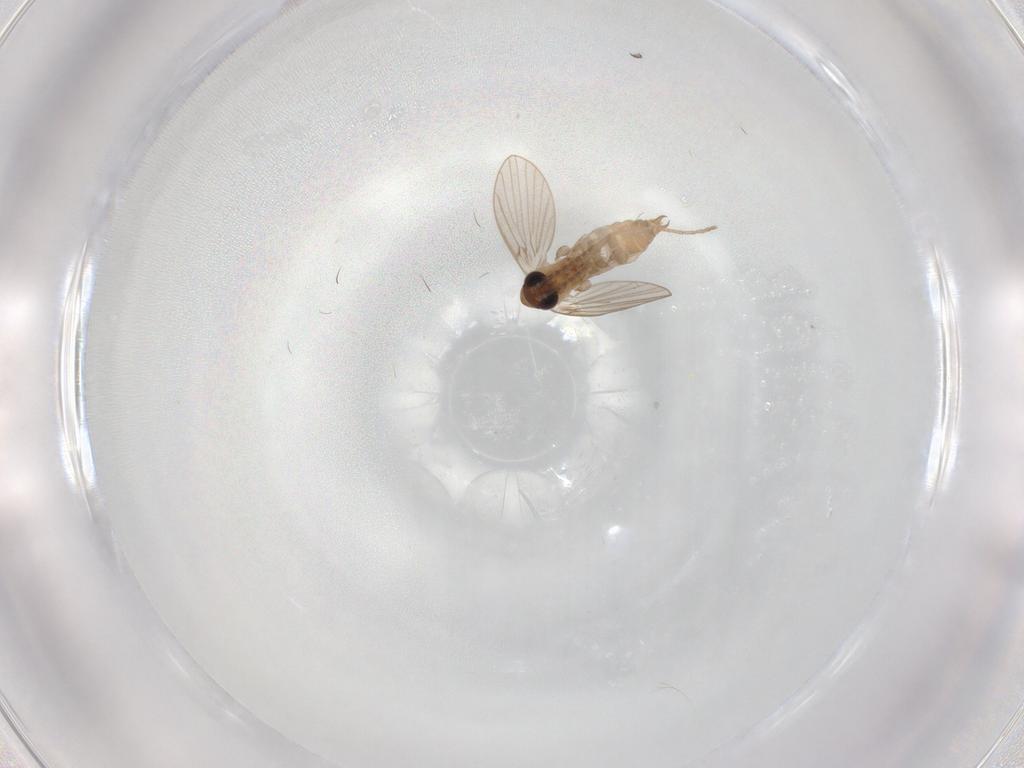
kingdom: Animalia
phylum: Arthropoda
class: Insecta
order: Diptera
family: Psychodidae
